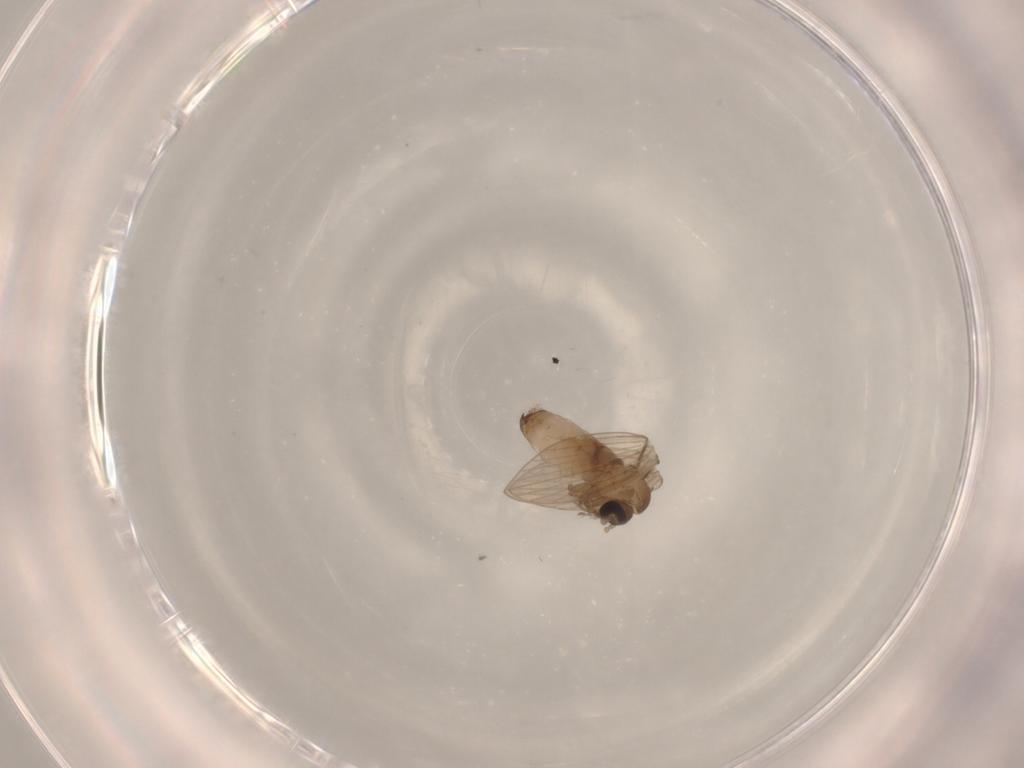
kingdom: Animalia
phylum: Arthropoda
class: Insecta
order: Diptera
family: Psychodidae
